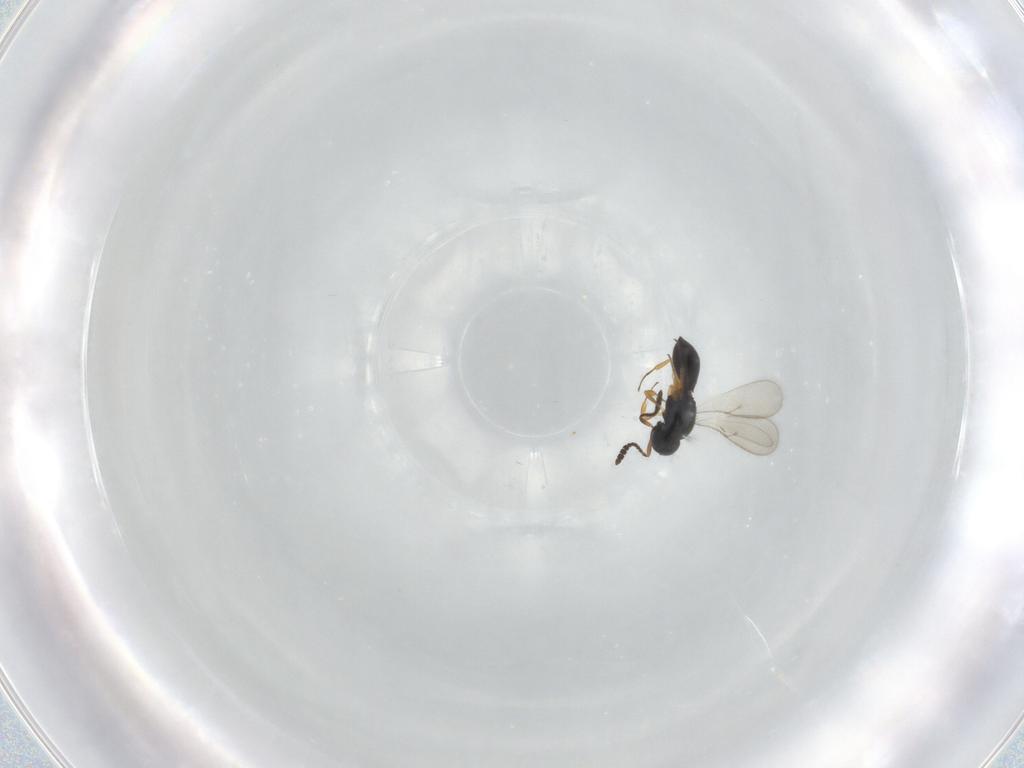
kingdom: Animalia
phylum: Arthropoda
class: Insecta
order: Hymenoptera
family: Scelionidae
